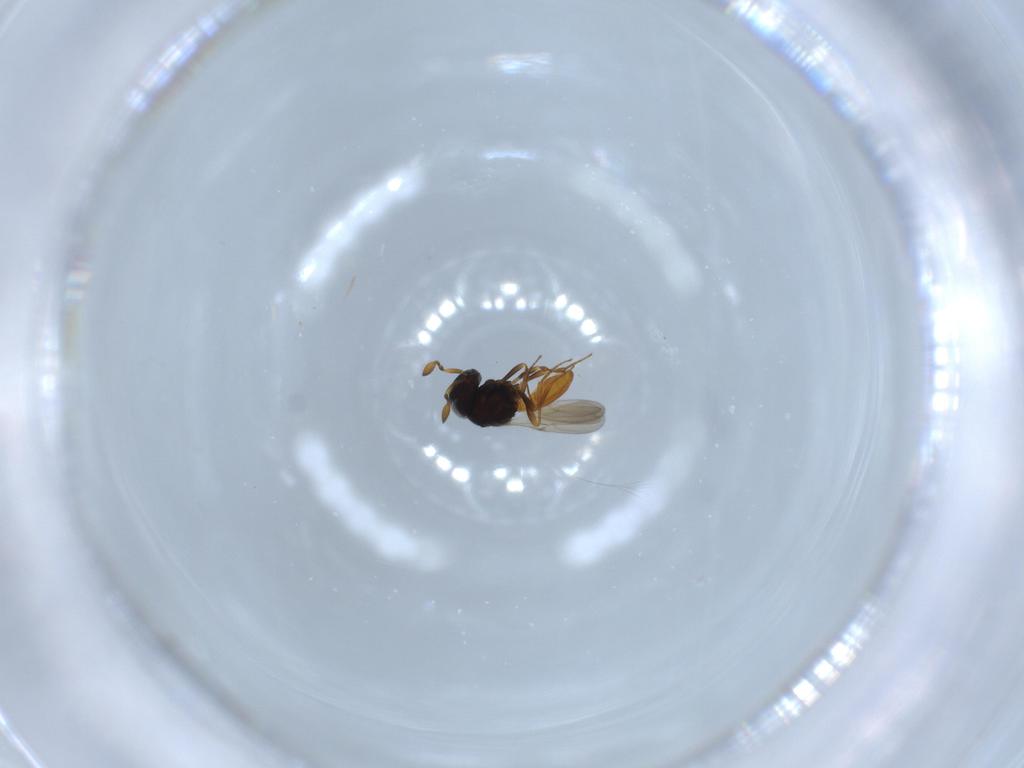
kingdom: Animalia
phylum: Arthropoda
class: Insecta
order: Hymenoptera
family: Scelionidae
